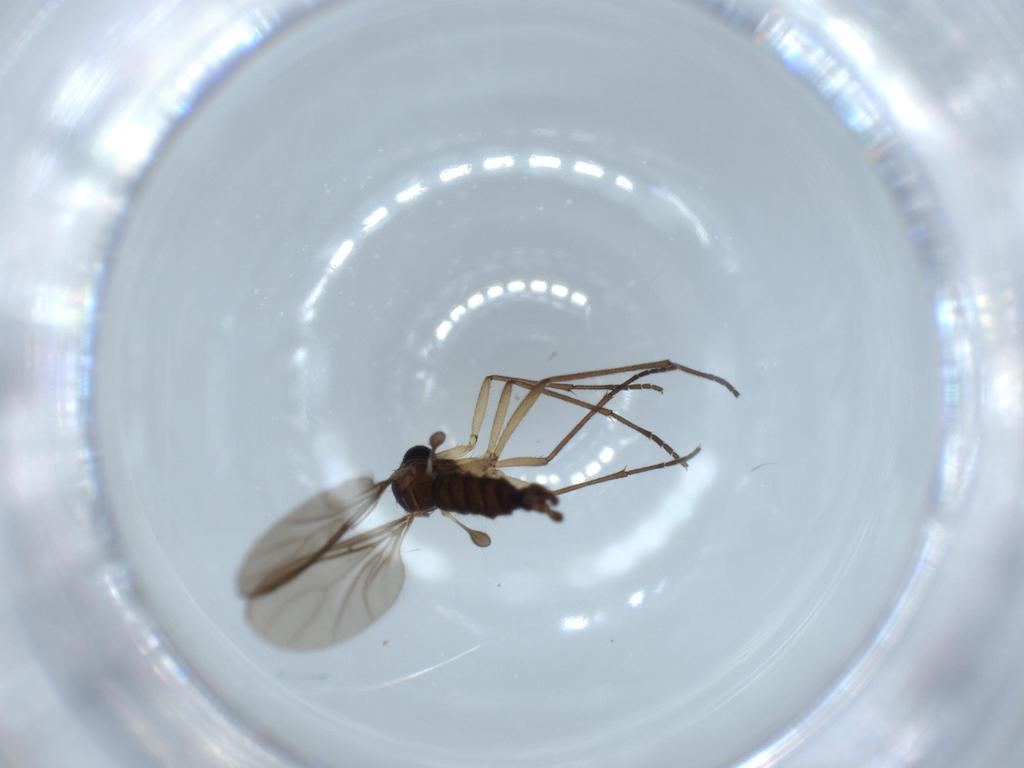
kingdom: Animalia
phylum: Arthropoda
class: Insecta
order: Diptera
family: Sciaridae
